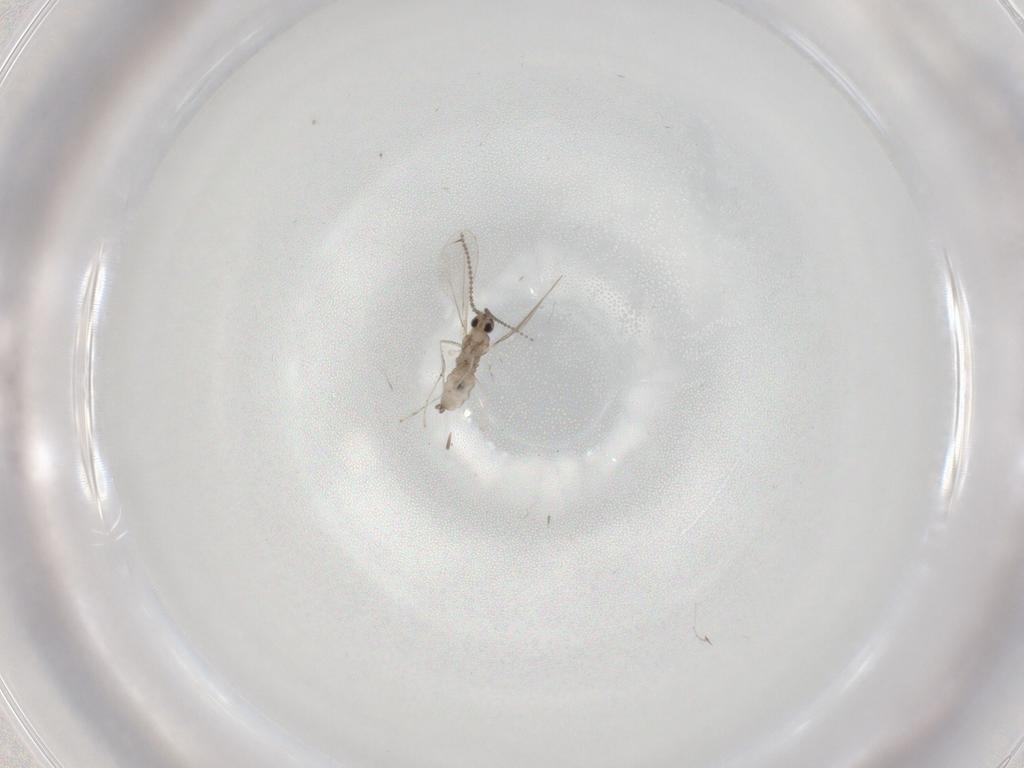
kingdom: Animalia
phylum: Arthropoda
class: Insecta
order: Diptera
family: Cecidomyiidae
